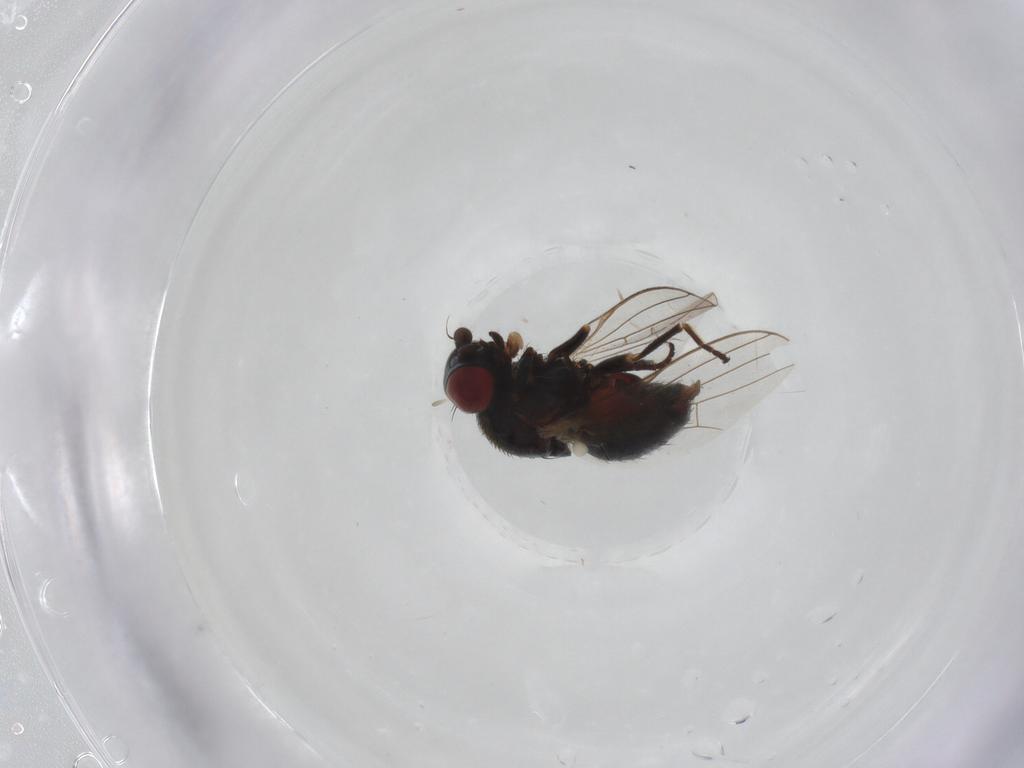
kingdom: Animalia
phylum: Arthropoda
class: Insecta
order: Diptera
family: Chamaemyiidae
